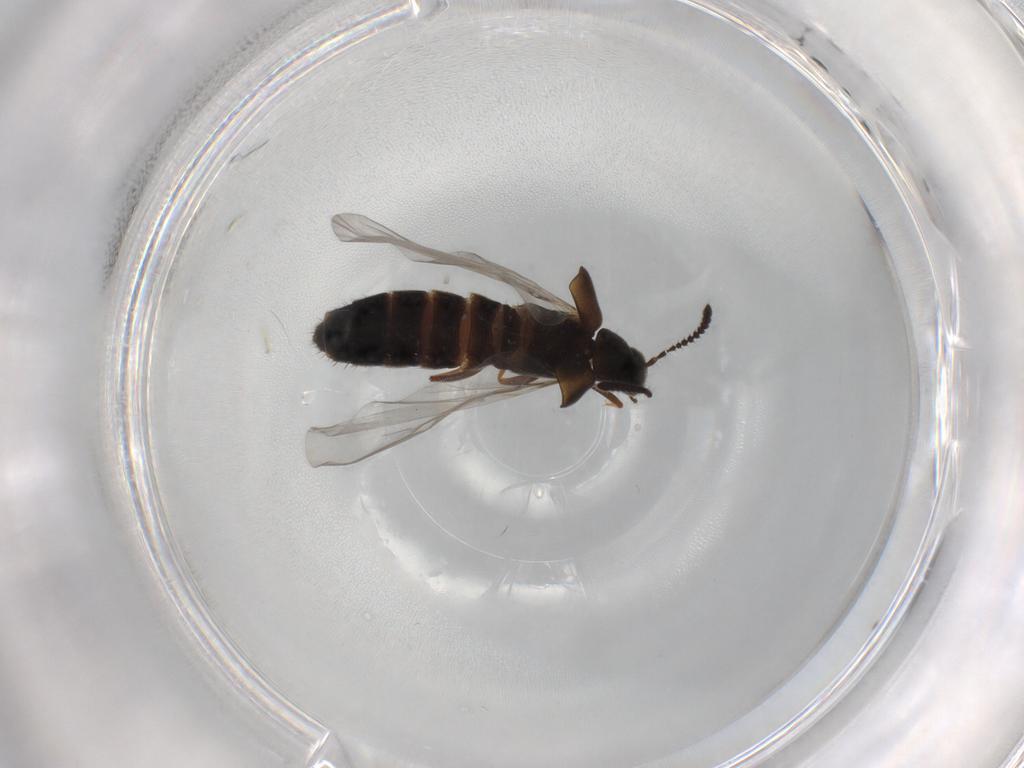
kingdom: Animalia
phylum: Arthropoda
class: Insecta
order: Coleoptera
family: Staphylinidae
